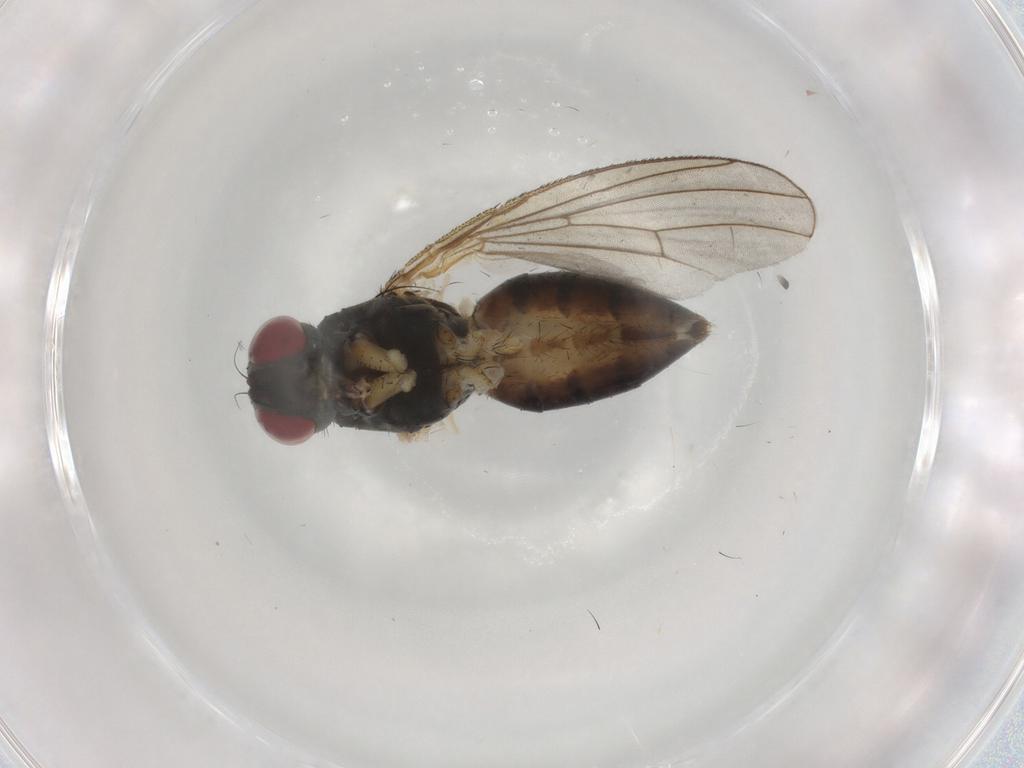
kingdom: Animalia
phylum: Arthropoda
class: Insecta
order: Diptera
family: Muscidae
